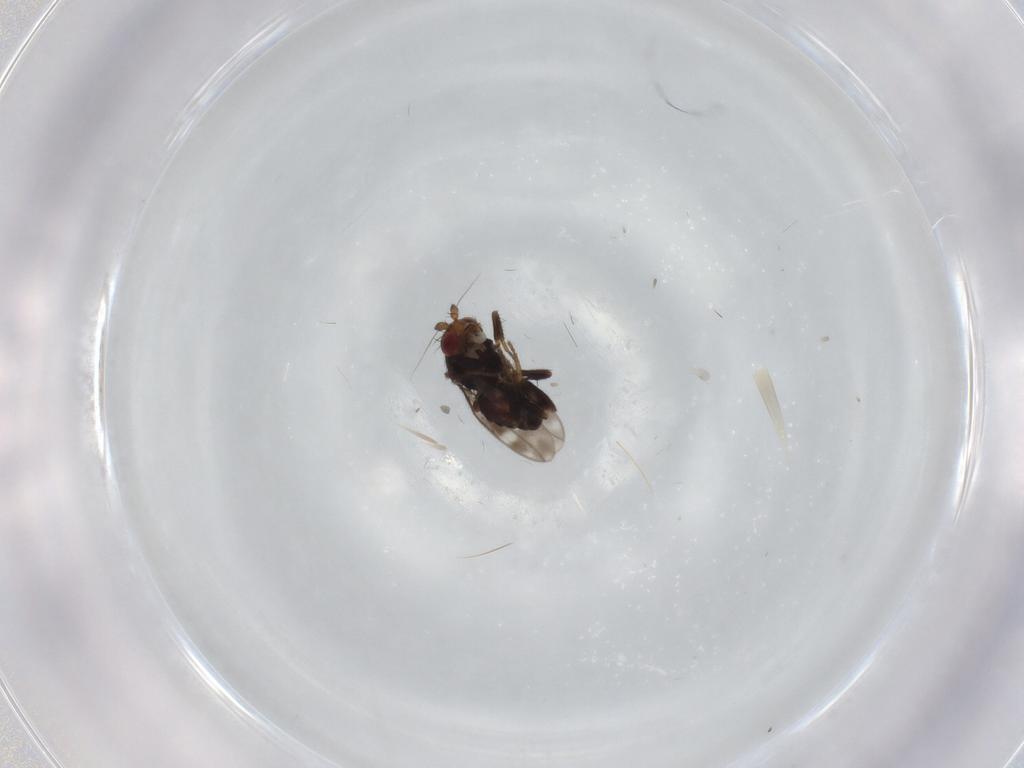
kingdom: Animalia
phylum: Arthropoda
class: Insecta
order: Diptera
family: Sphaeroceridae
